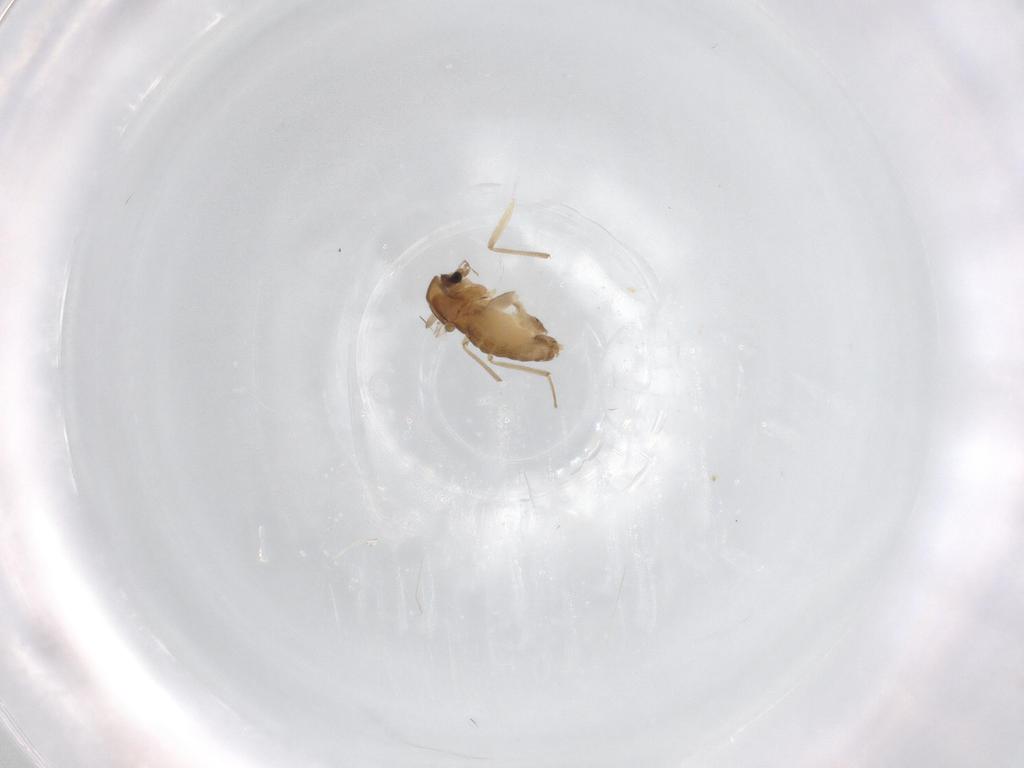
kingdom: Animalia
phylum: Arthropoda
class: Insecta
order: Diptera
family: Chironomidae
